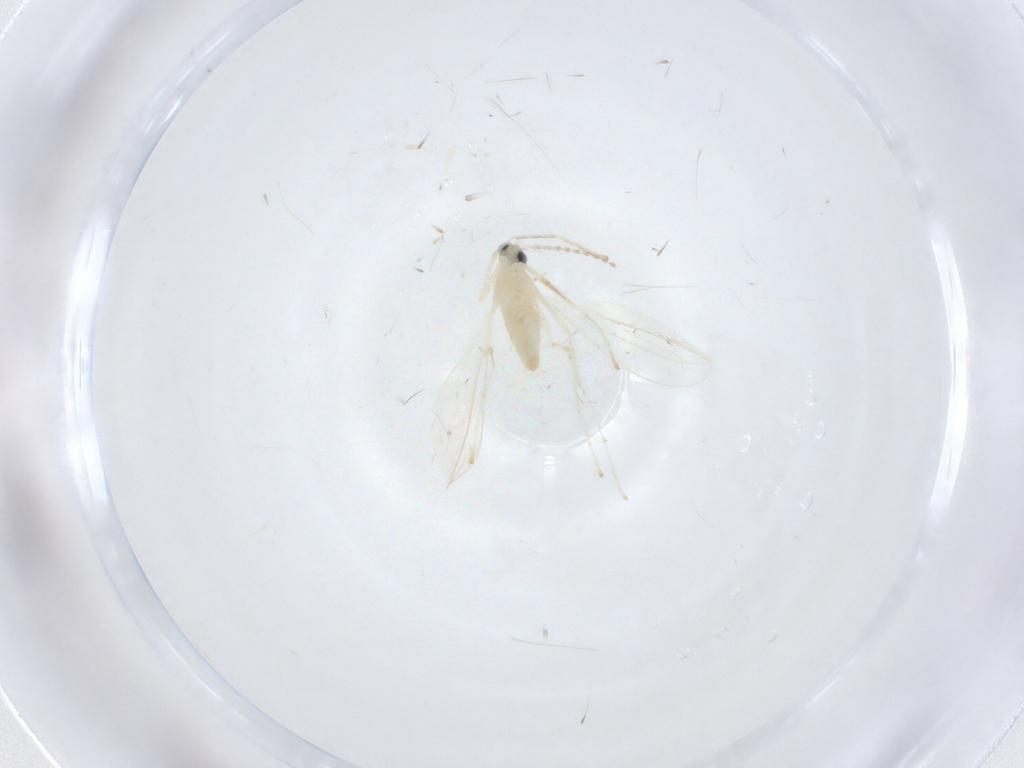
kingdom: Animalia
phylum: Arthropoda
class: Insecta
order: Diptera
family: Cecidomyiidae
